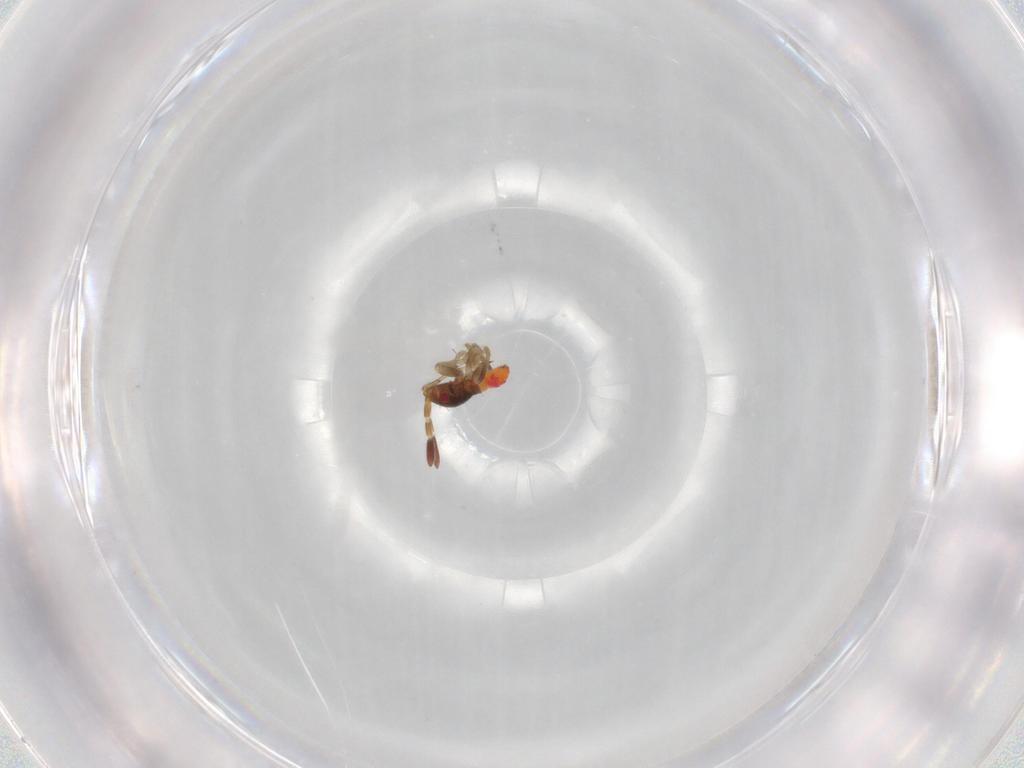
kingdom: Animalia
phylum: Arthropoda
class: Insecta
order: Hemiptera
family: Rhyparochromidae
